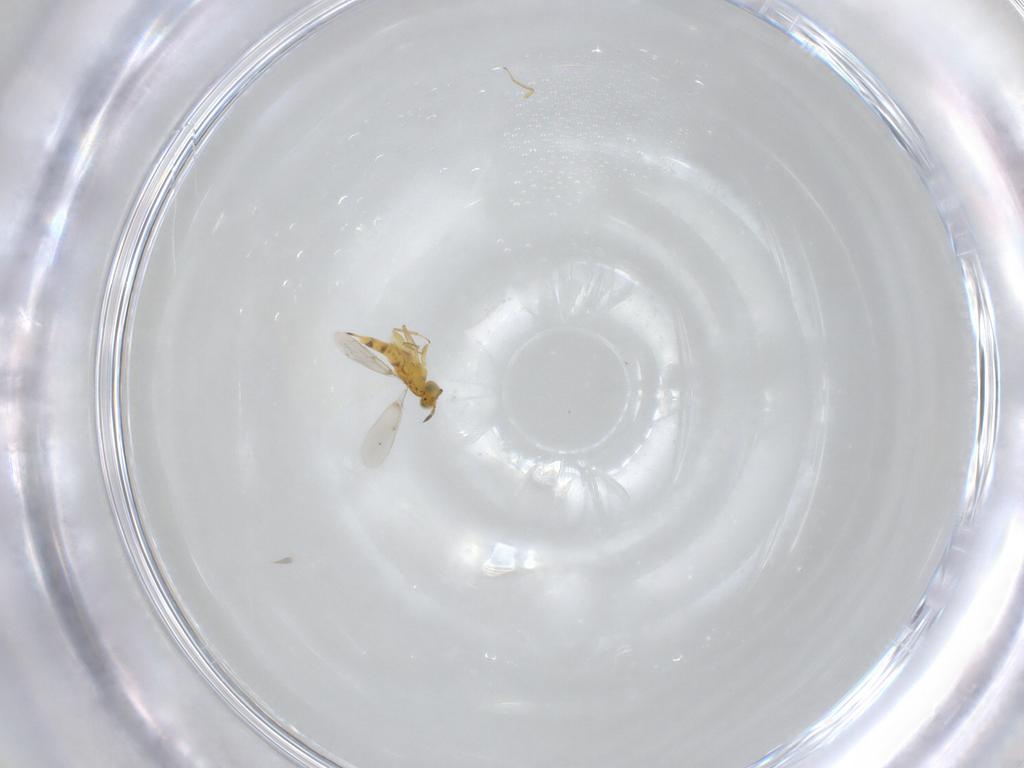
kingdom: Animalia
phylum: Arthropoda
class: Insecta
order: Hymenoptera
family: Aphelinidae
